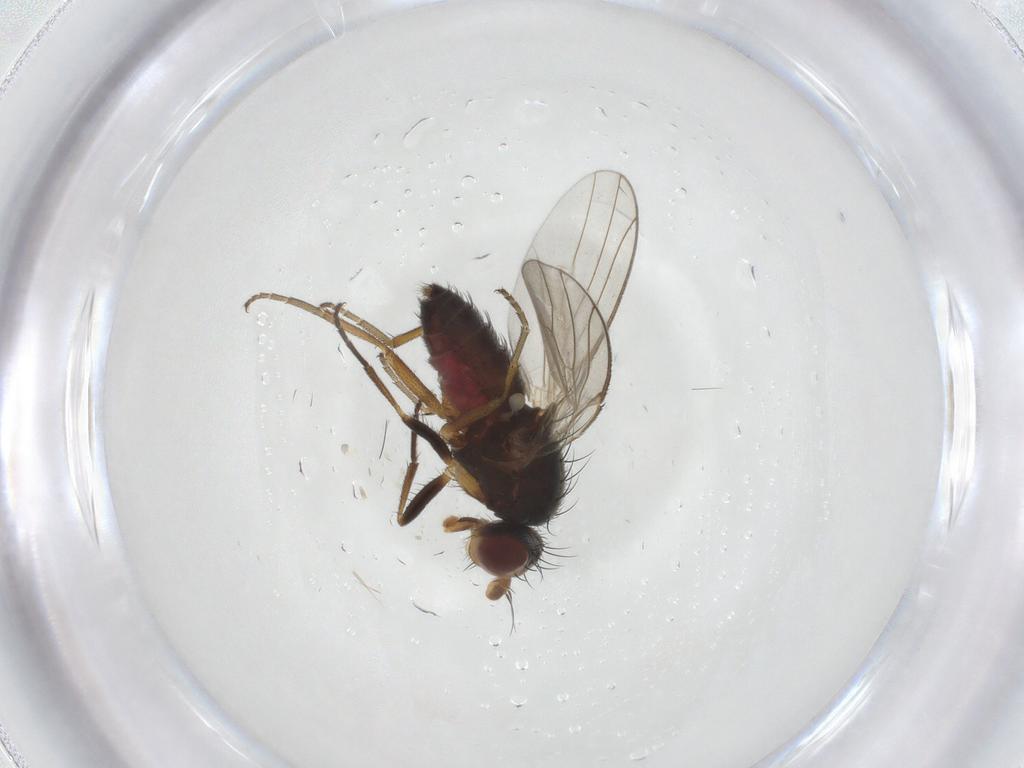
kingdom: Animalia
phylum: Arthropoda
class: Insecta
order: Diptera
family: Heleomyzidae
